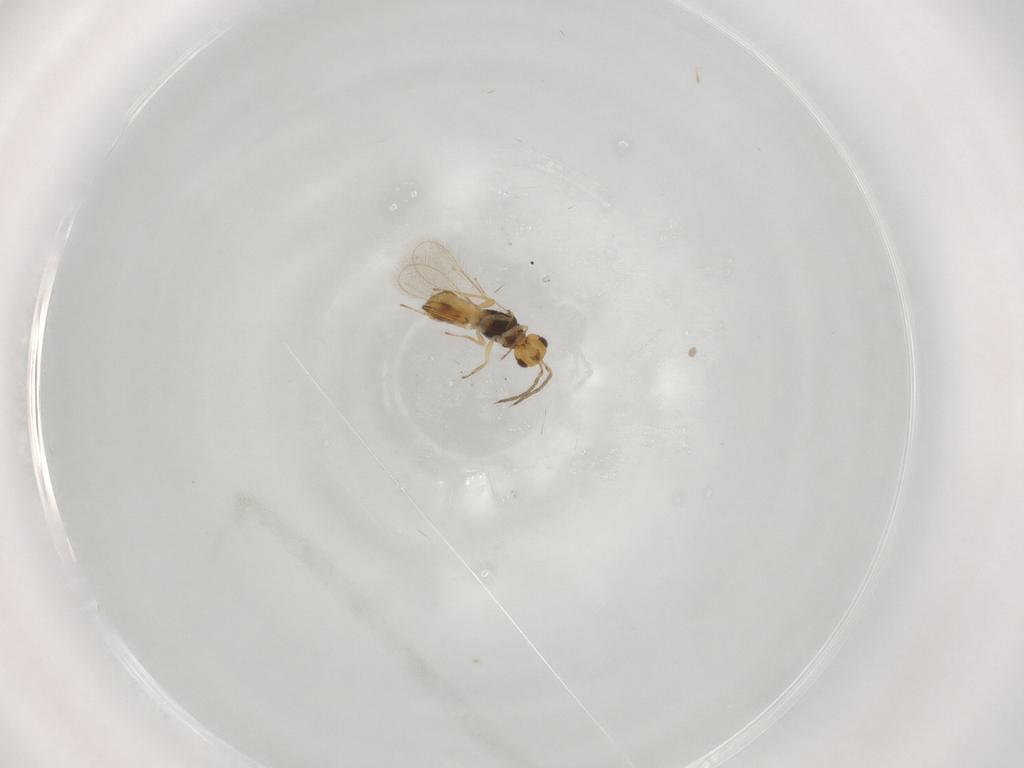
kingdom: Animalia
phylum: Arthropoda
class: Insecta
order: Hymenoptera
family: Eulophidae
